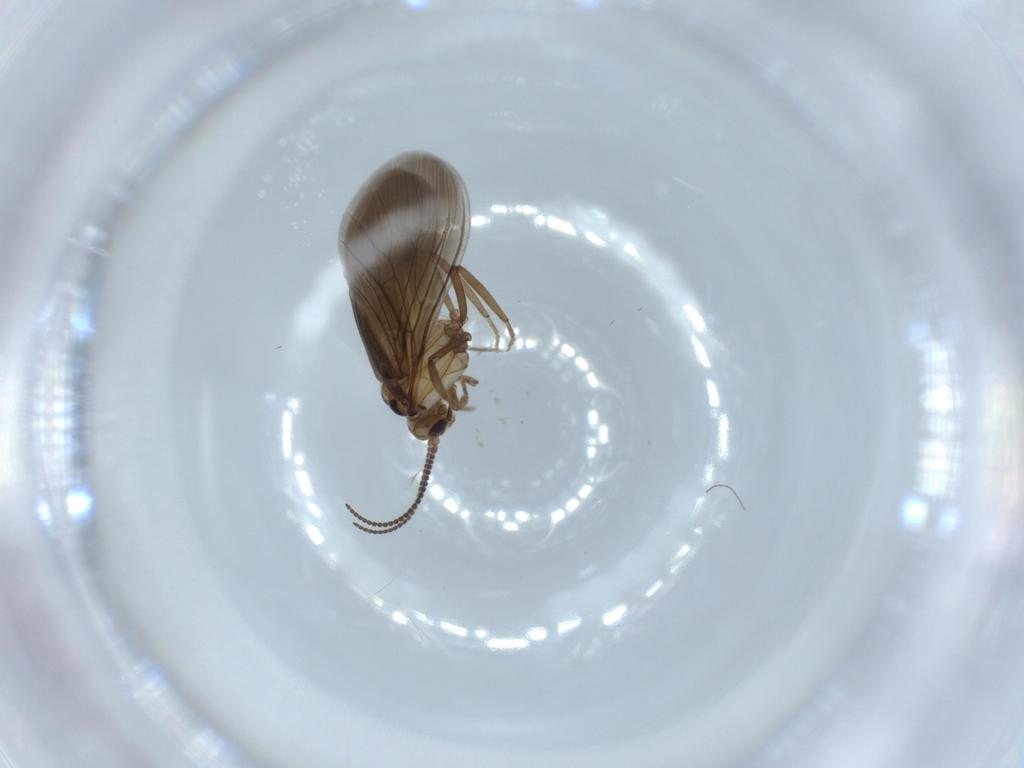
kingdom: Animalia
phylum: Arthropoda
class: Insecta
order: Neuroptera
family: Coniopterygidae
